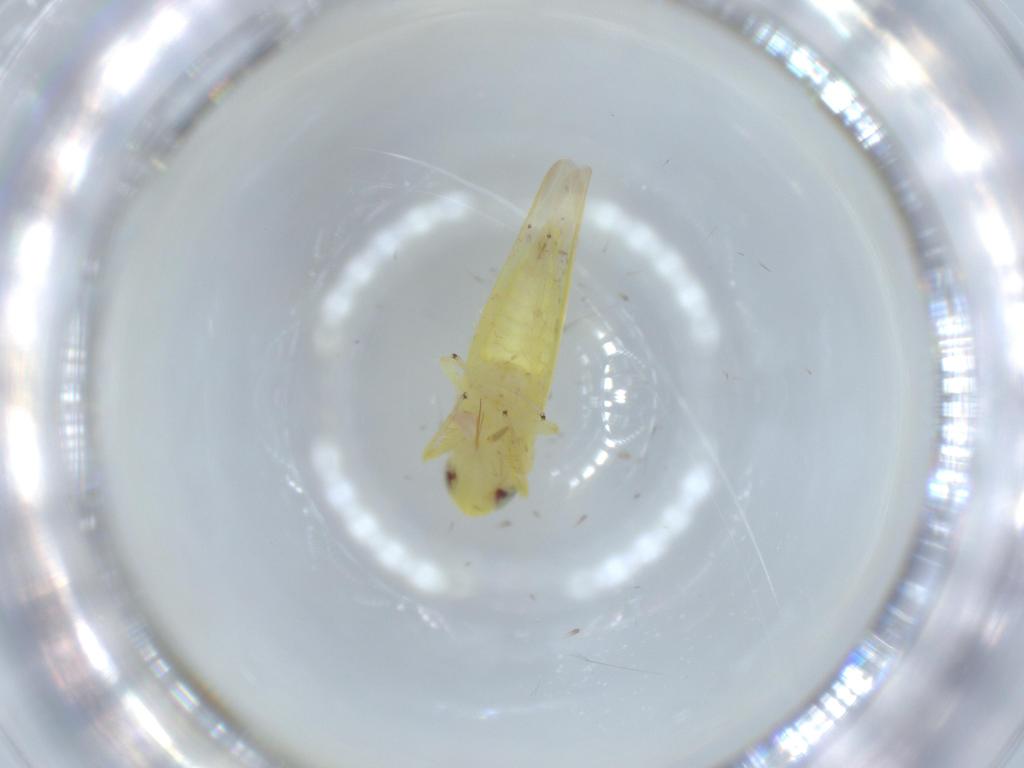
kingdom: Animalia
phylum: Arthropoda
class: Insecta
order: Hemiptera
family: Cicadellidae
